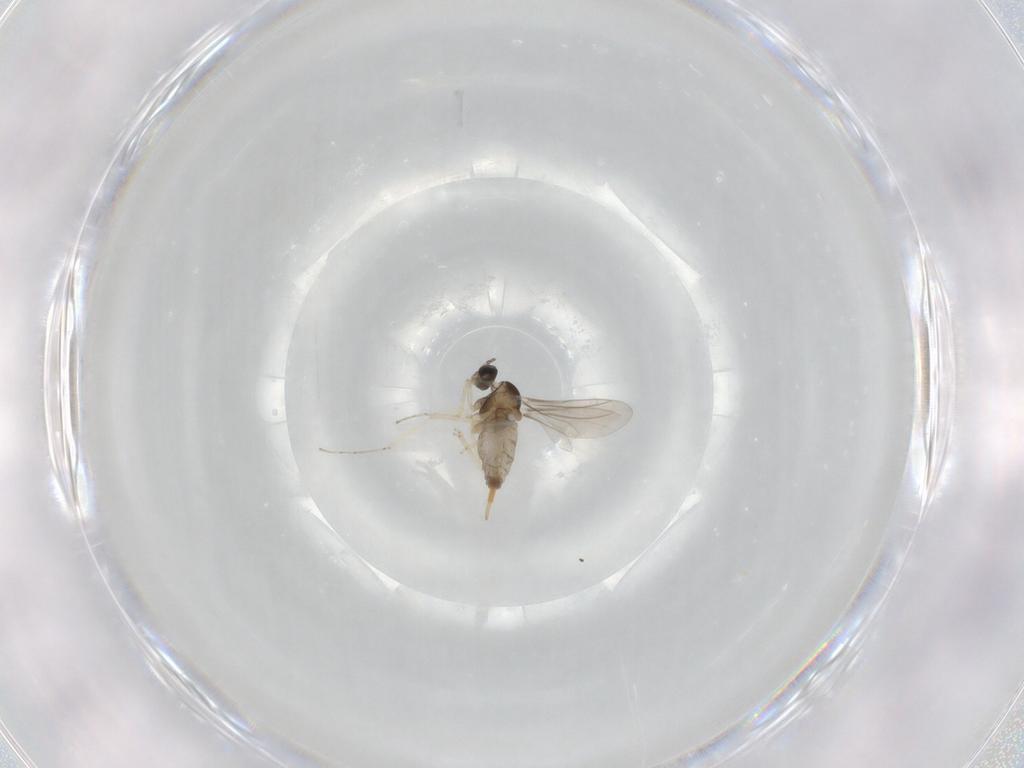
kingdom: Animalia
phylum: Arthropoda
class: Insecta
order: Diptera
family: Cecidomyiidae
